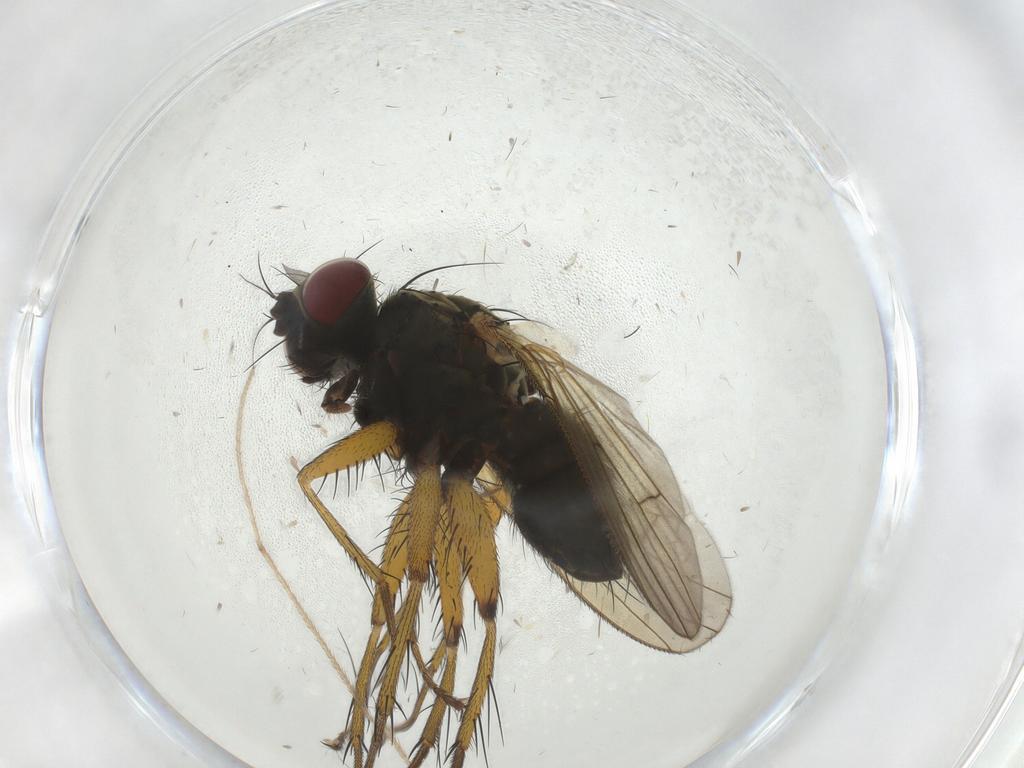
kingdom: Animalia
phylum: Arthropoda
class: Insecta
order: Diptera
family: Muscidae
